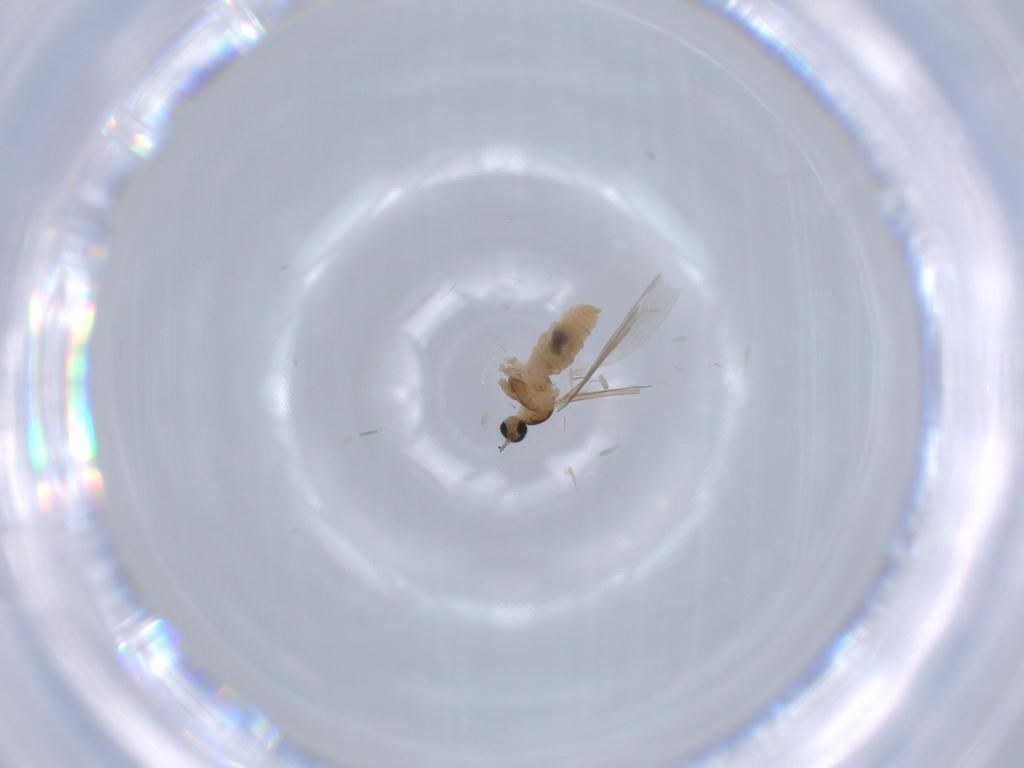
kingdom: Animalia
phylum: Arthropoda
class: Insecta
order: Diptera
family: Cecidomyiidae
